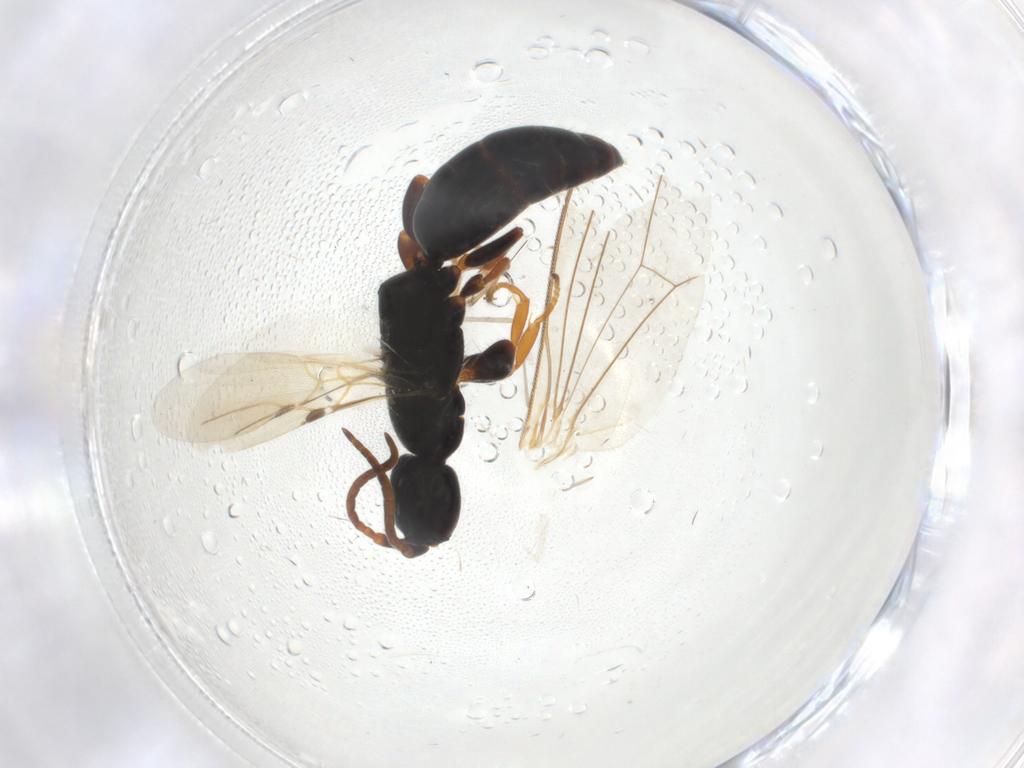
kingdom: Animalia
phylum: Arthropoda
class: Insecta
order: Hymenoptera
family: Bethylidae
